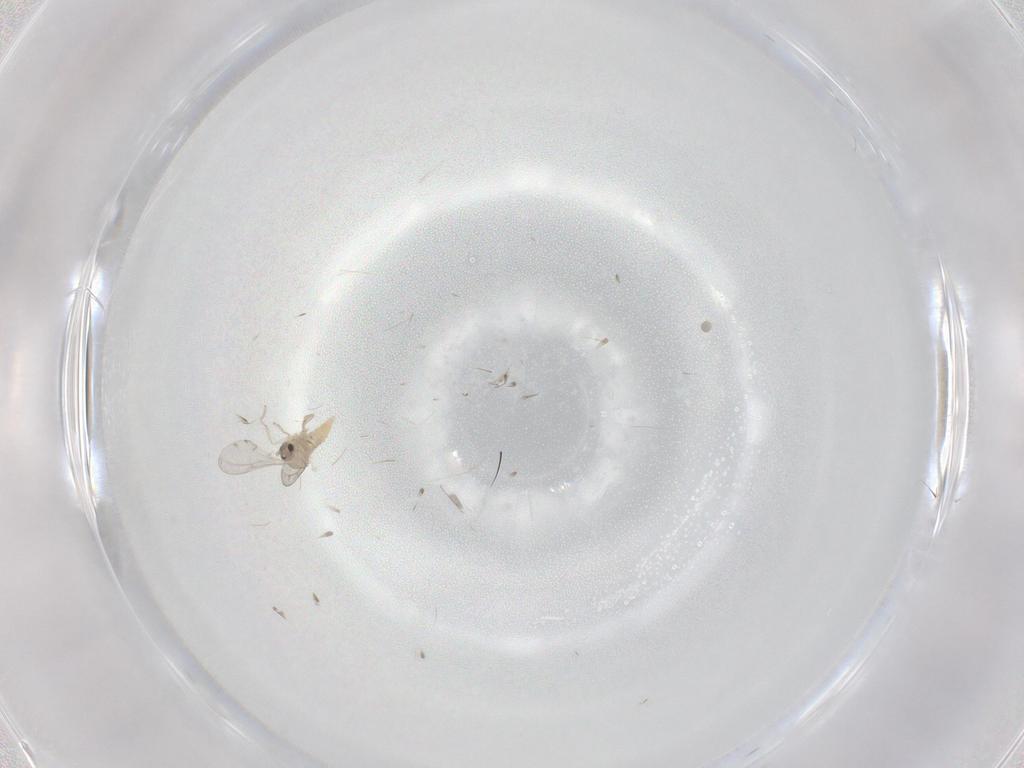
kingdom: Animalia
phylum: Arthropoda
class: Insecta
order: Diptera
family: Cecidomyiidae
